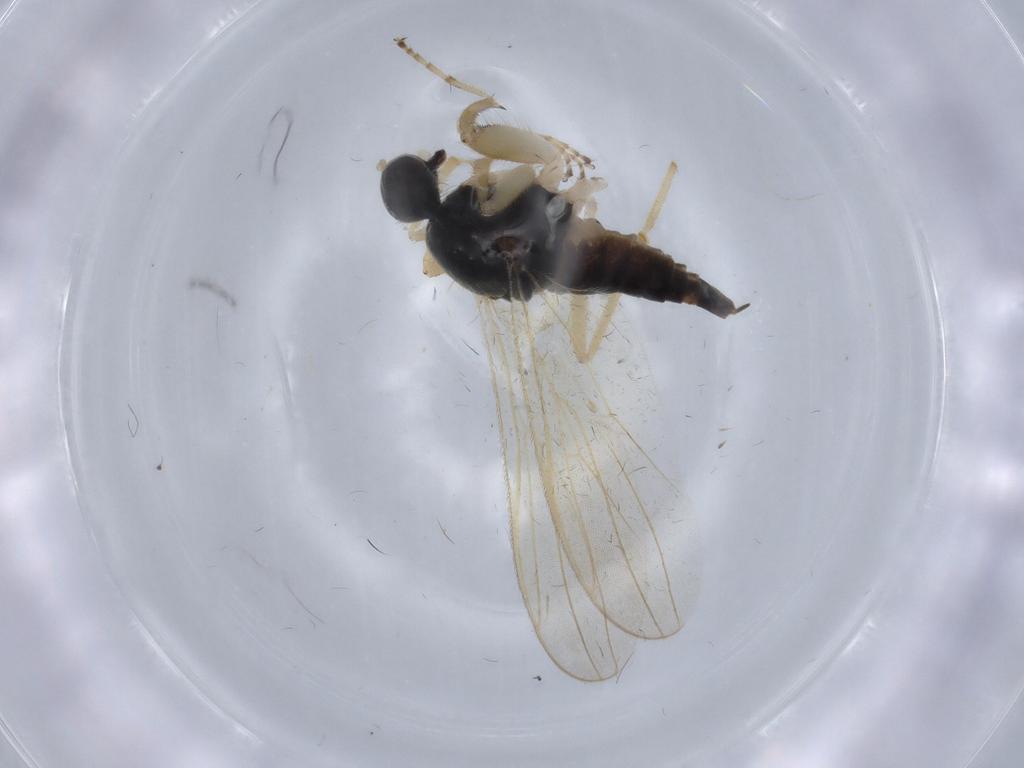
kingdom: Animalia
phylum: Arthropoda
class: Insecta
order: Diptera
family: Hybotidae
